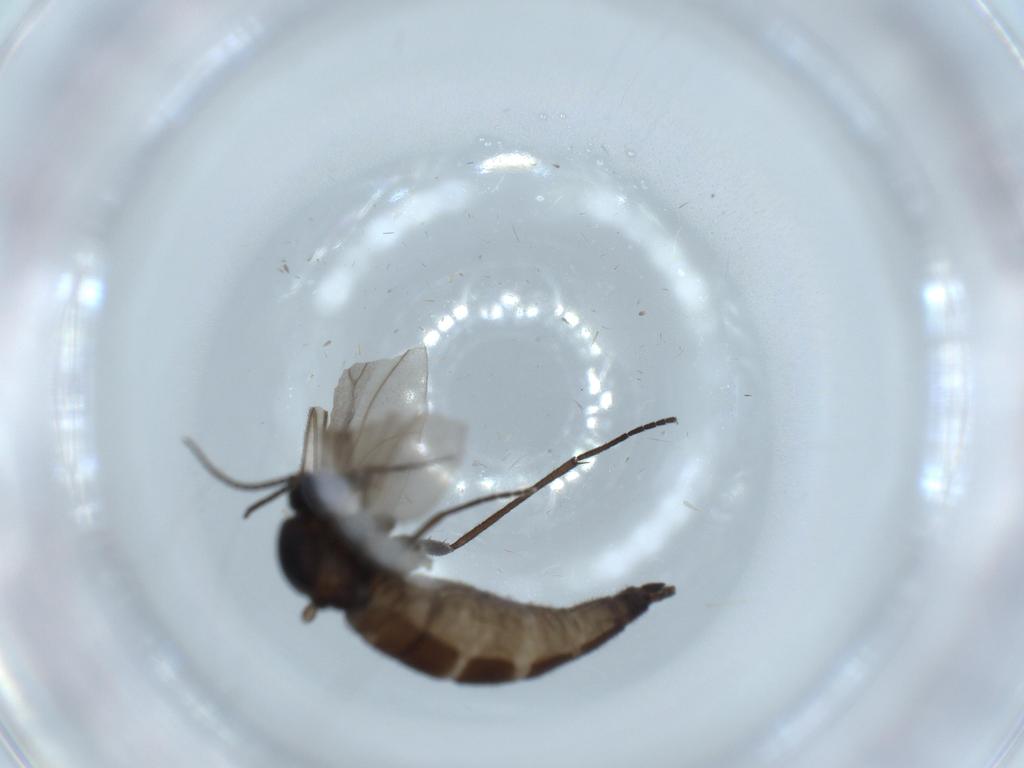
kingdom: Animalia
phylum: Arthropoda
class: Insecta
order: Diptera
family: Sciaridae
